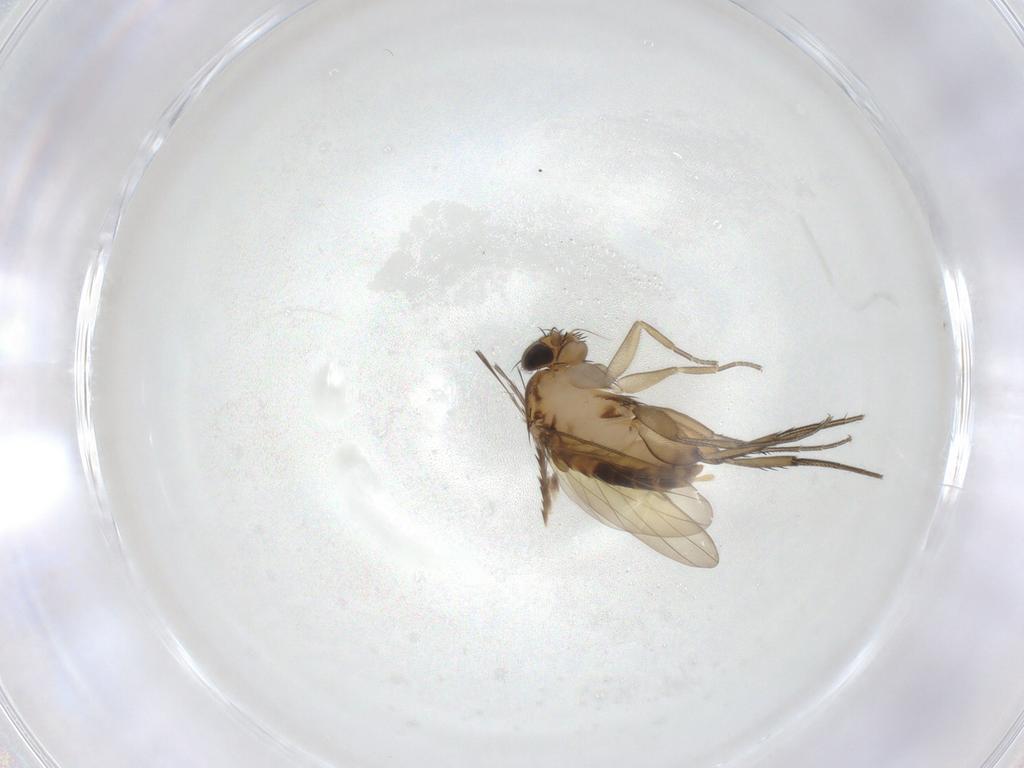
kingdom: Animalia
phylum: Arthropoda
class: Insecta
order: Diptera
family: Phoridae
